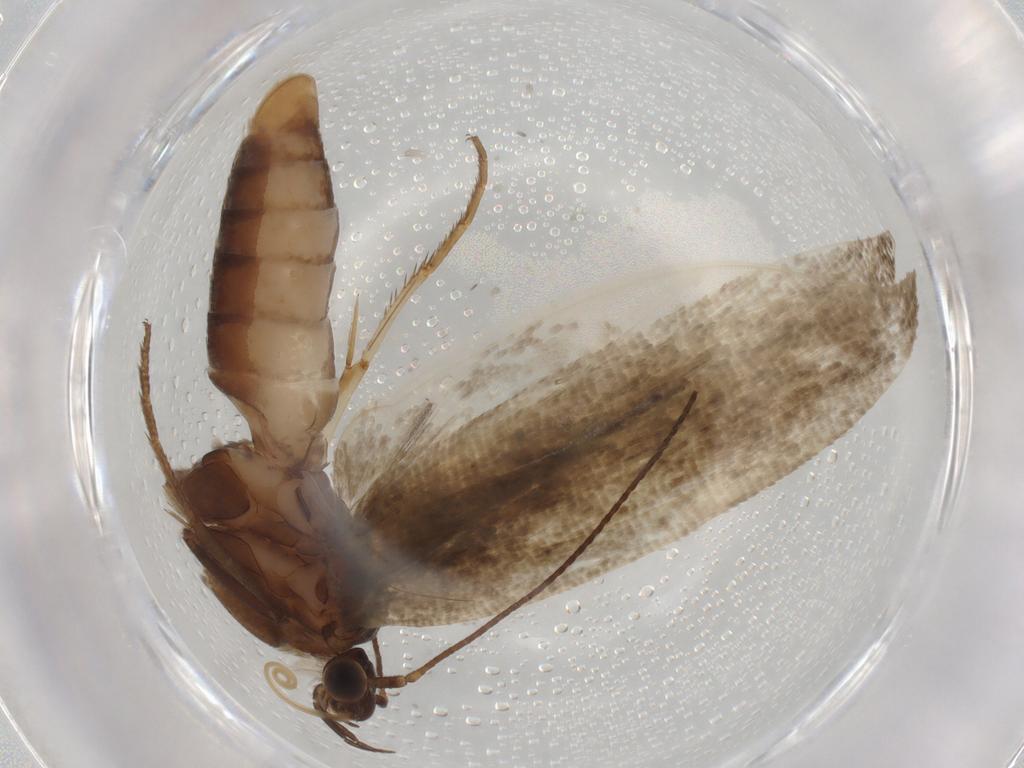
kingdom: Animalia
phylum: Arthropoda
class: Insecta
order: Lepidoptera
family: Ypsolophidae
